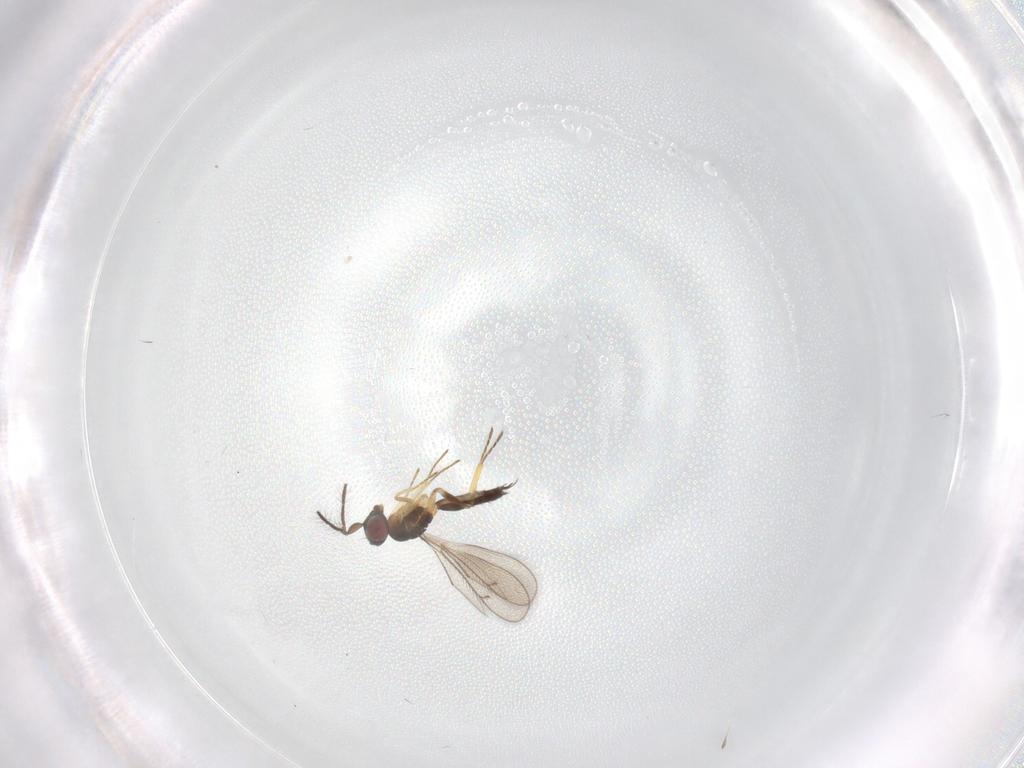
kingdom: Animalia
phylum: Arthropoda
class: Insecta
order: Hymenoptera
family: Eulophidae
